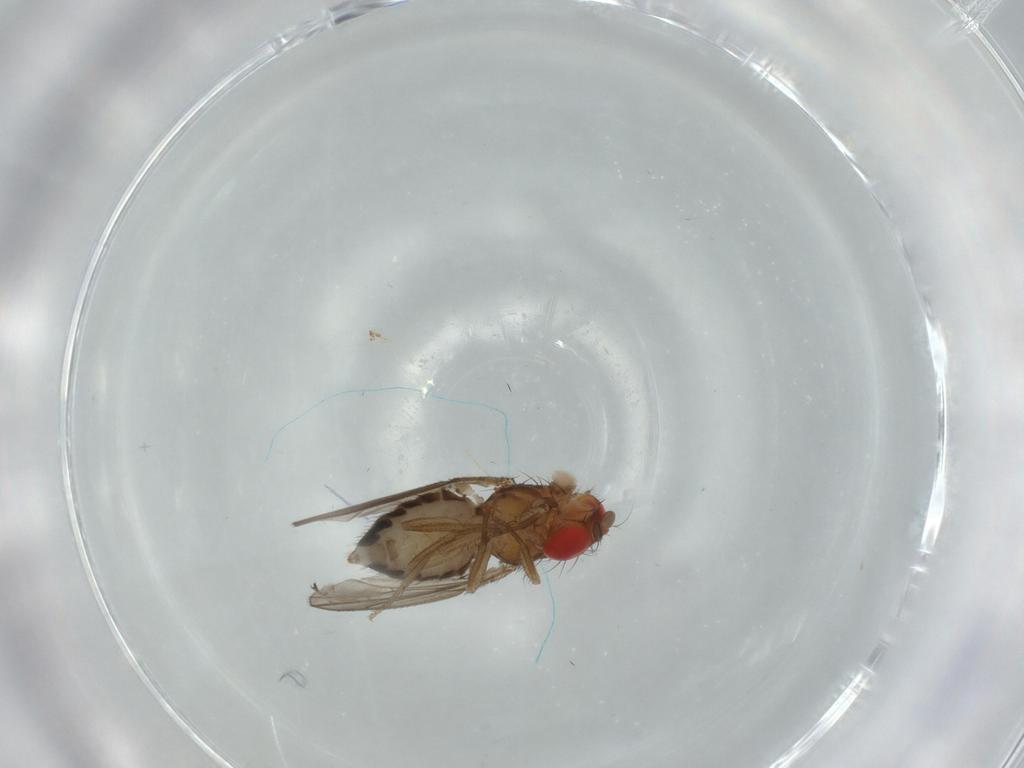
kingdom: Animalia
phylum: Arthropoda
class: Insecta
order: Diptera
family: Drosophilidae
